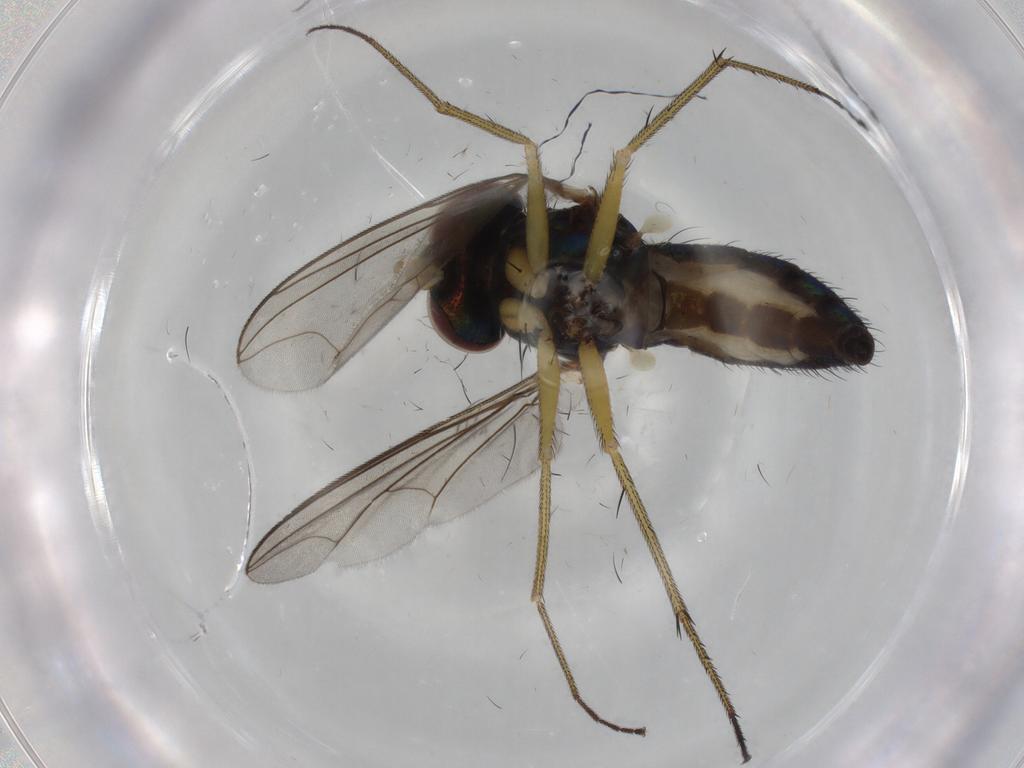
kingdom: Animalia
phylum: Arthropoda
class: Insecta
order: Diptera
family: Dolichopodidae
